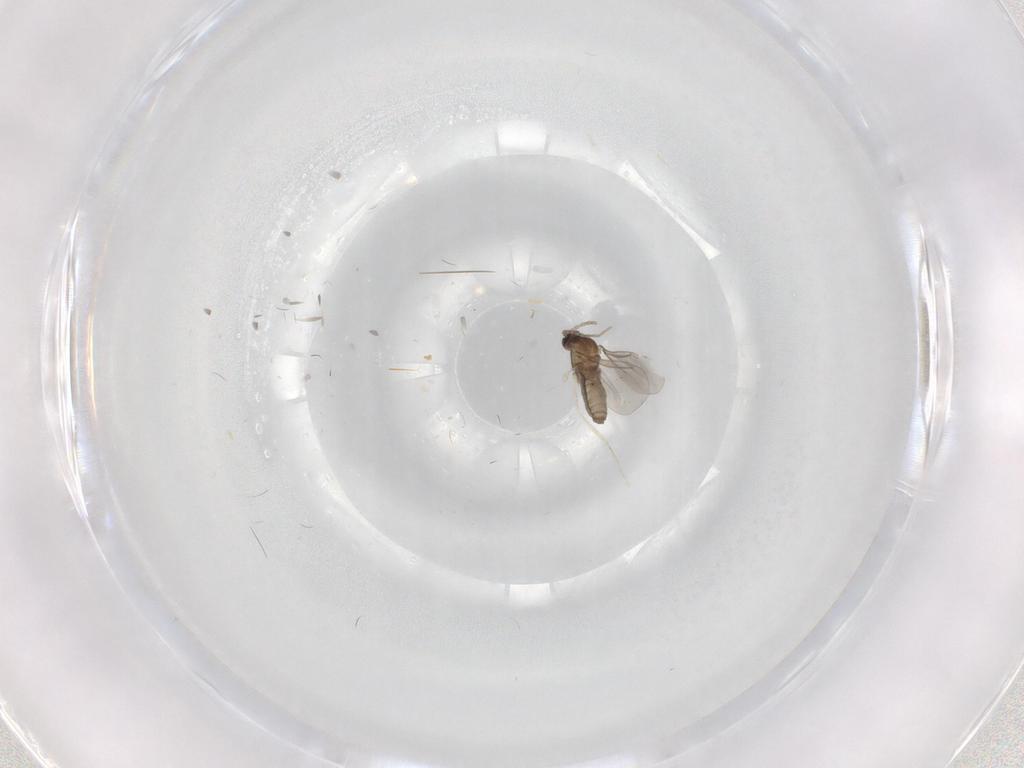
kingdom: Animalia
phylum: Arthropoda
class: Insecta
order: Diptera
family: Cecidomyiidae
